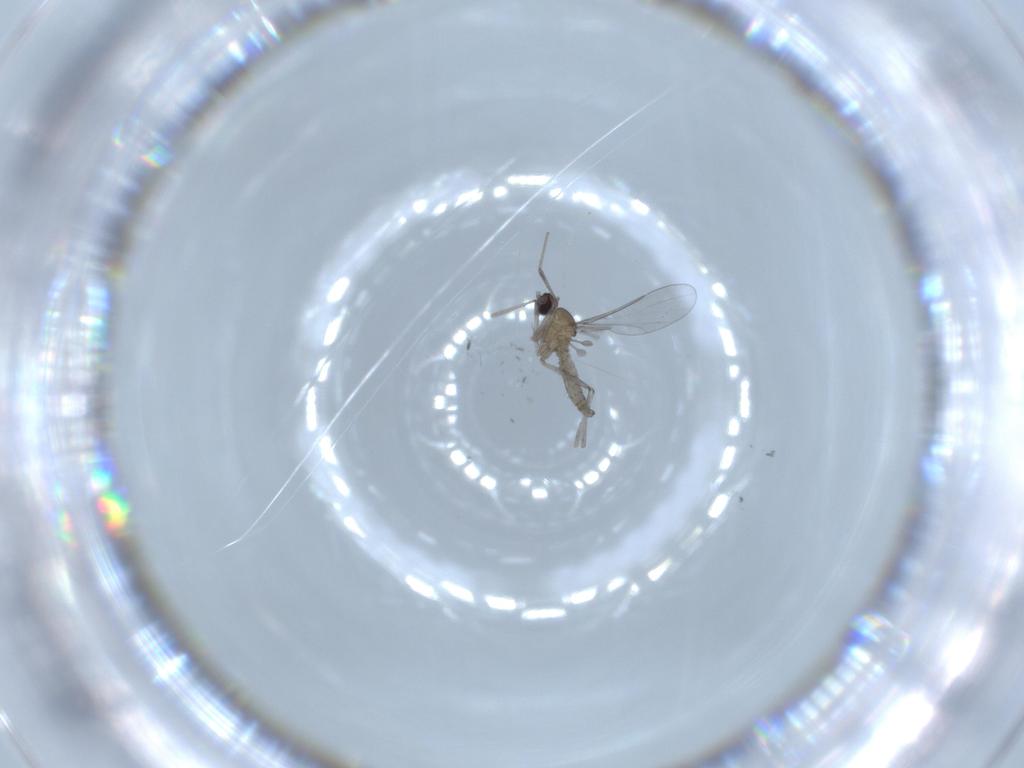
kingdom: Animalia
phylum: Arthropoda
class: Insecta
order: Diptera
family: Cecidomyiidae
